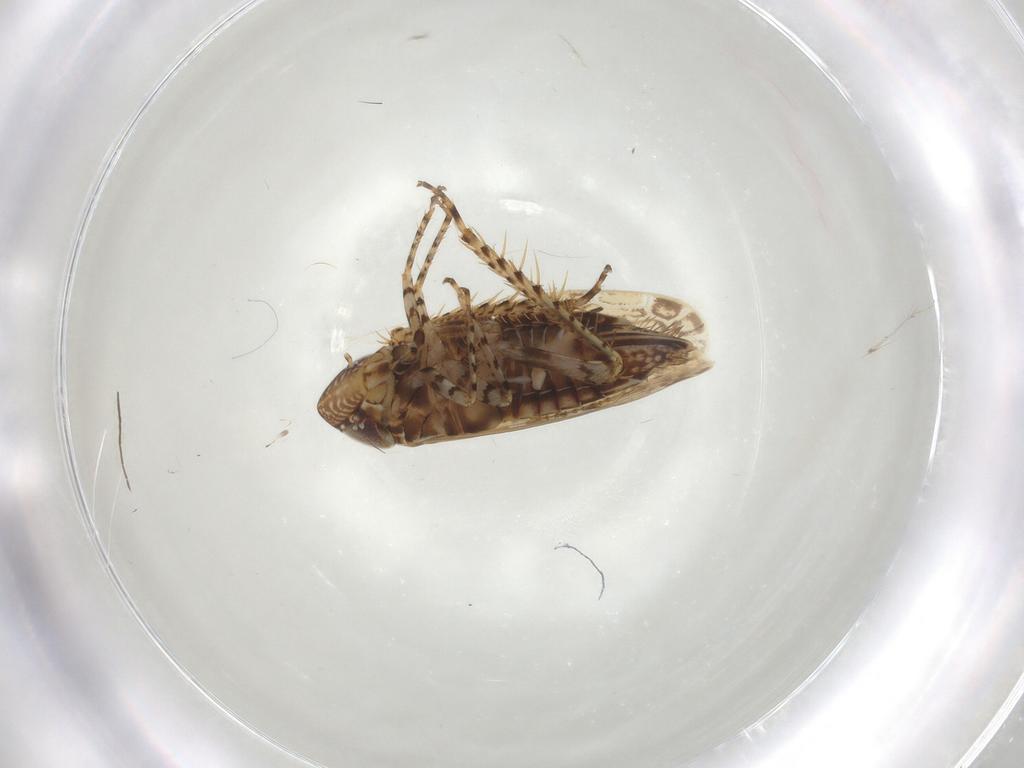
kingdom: Animalia
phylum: Arthropoda
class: Insecta
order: Hemiptera
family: Cicadellidae
